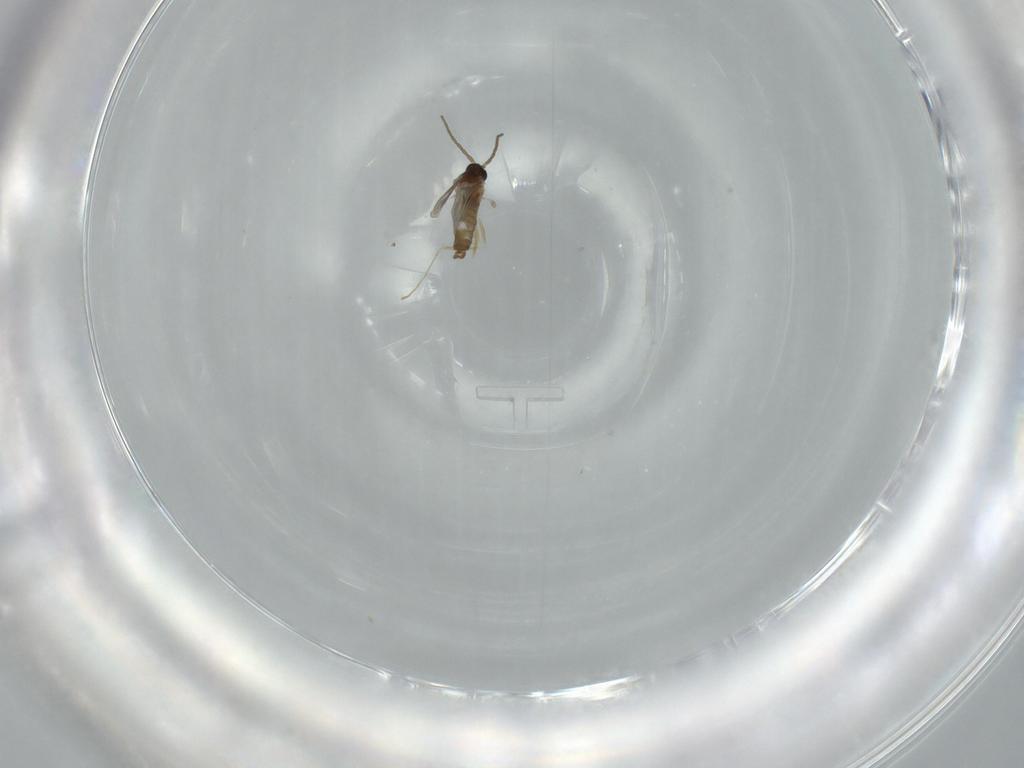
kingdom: Animalia
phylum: Arthropoda
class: Insecta
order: Diptera
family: Cecidomyiidae
